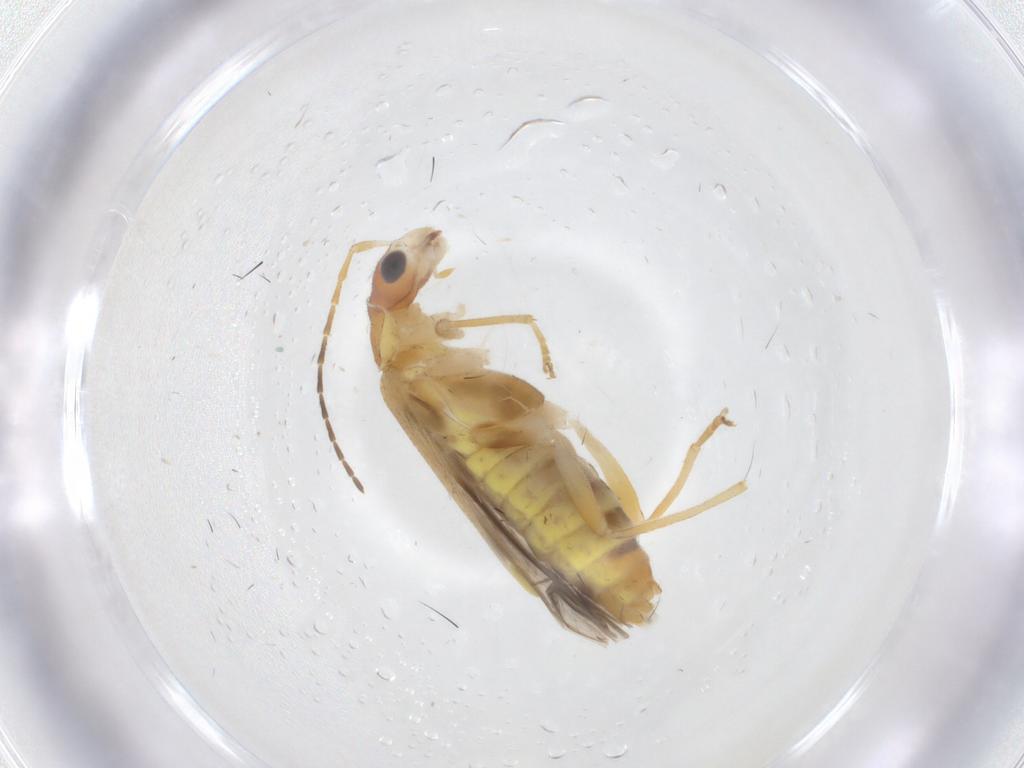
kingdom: Animalia
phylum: Arthropoda
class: Insecta
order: Coleoptera
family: Cantharidae
